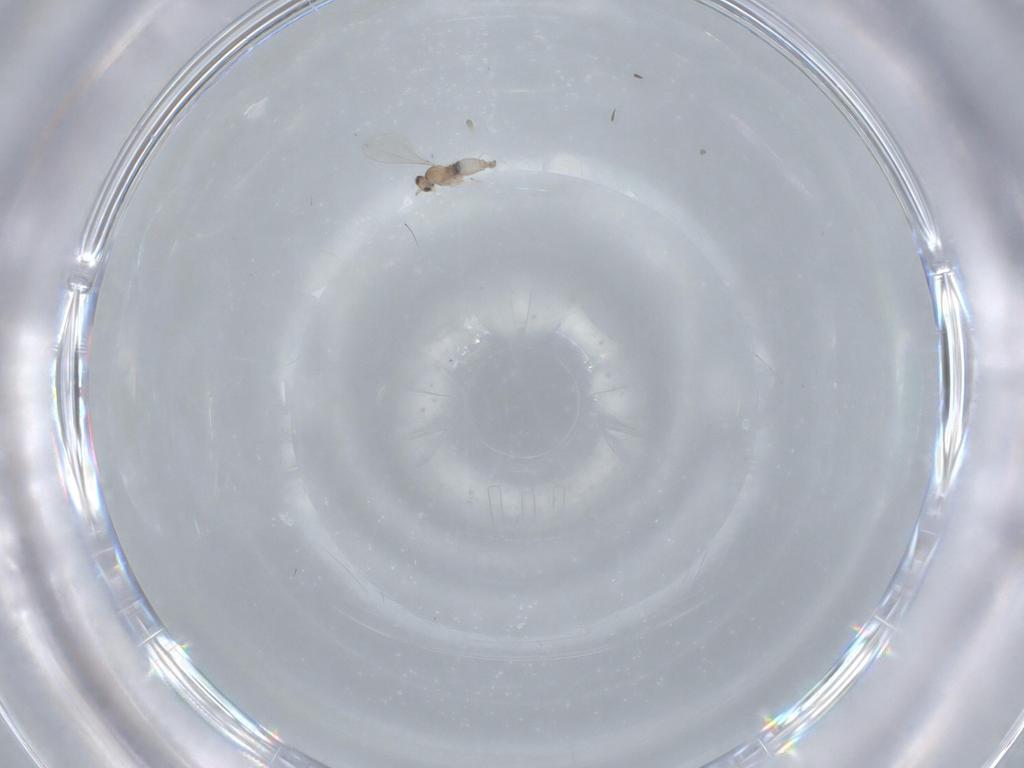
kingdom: Animalia
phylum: Arthropoda
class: Insecta
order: Diptera
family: Cecidomyiidae
